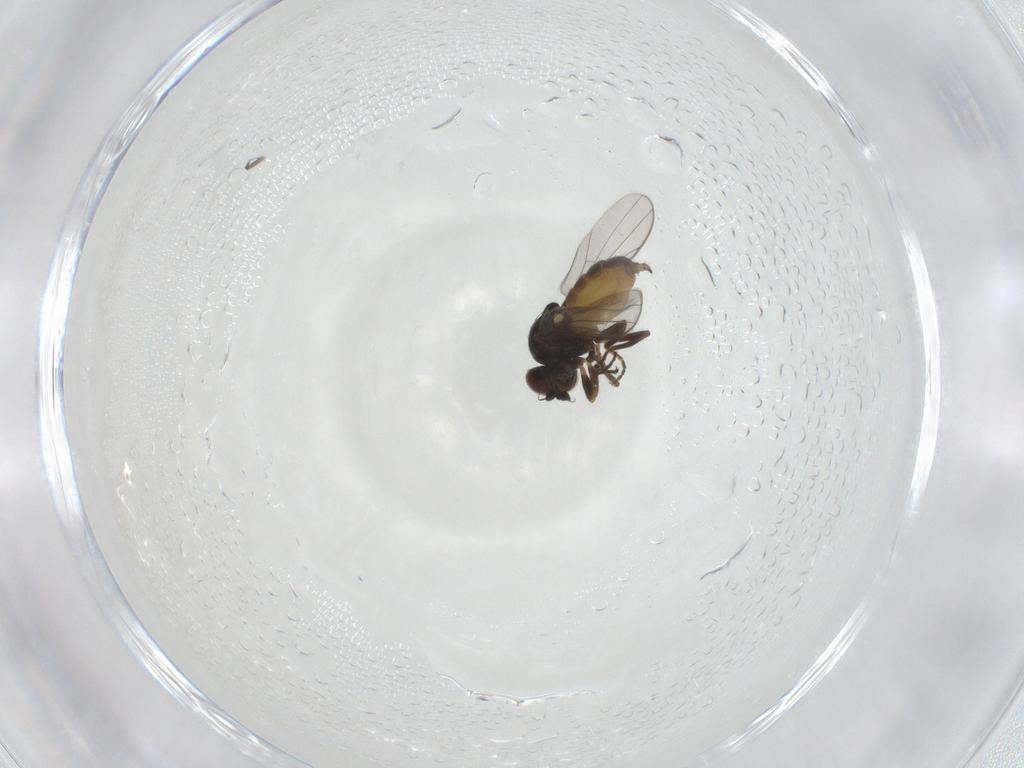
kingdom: Animalia
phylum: Arthropoda
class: Insecta
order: Diptera
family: Chloropidae
